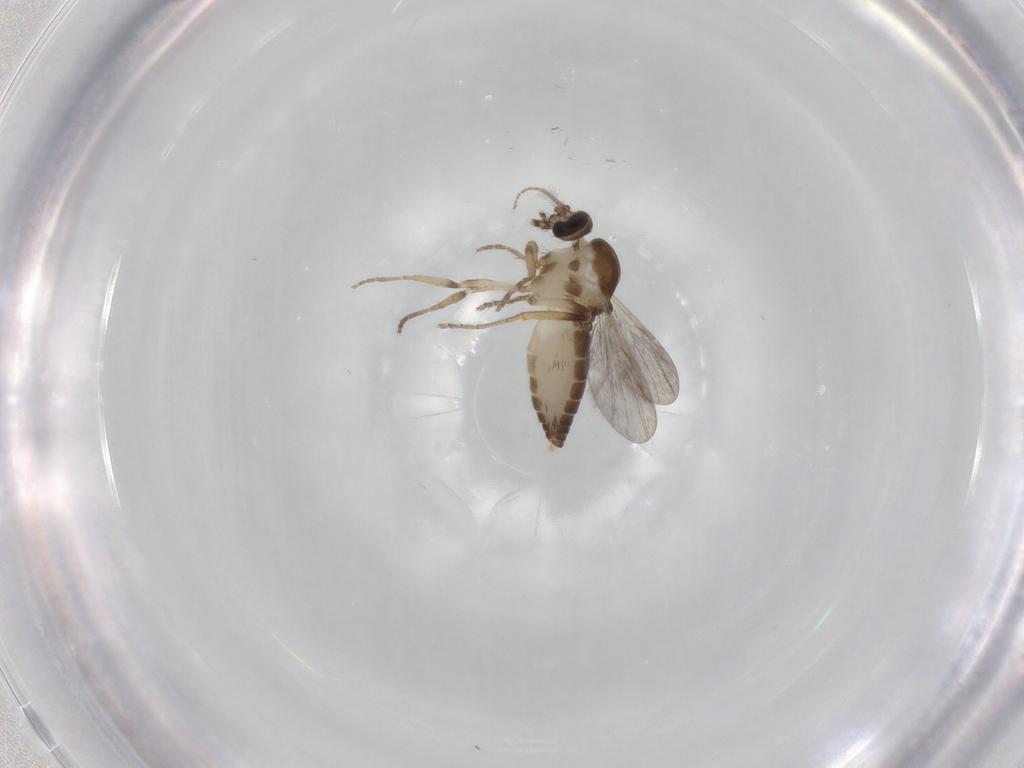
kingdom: Animalia
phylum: Arthropoda
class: Insecta
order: Diptera
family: Ceratopogonidae
